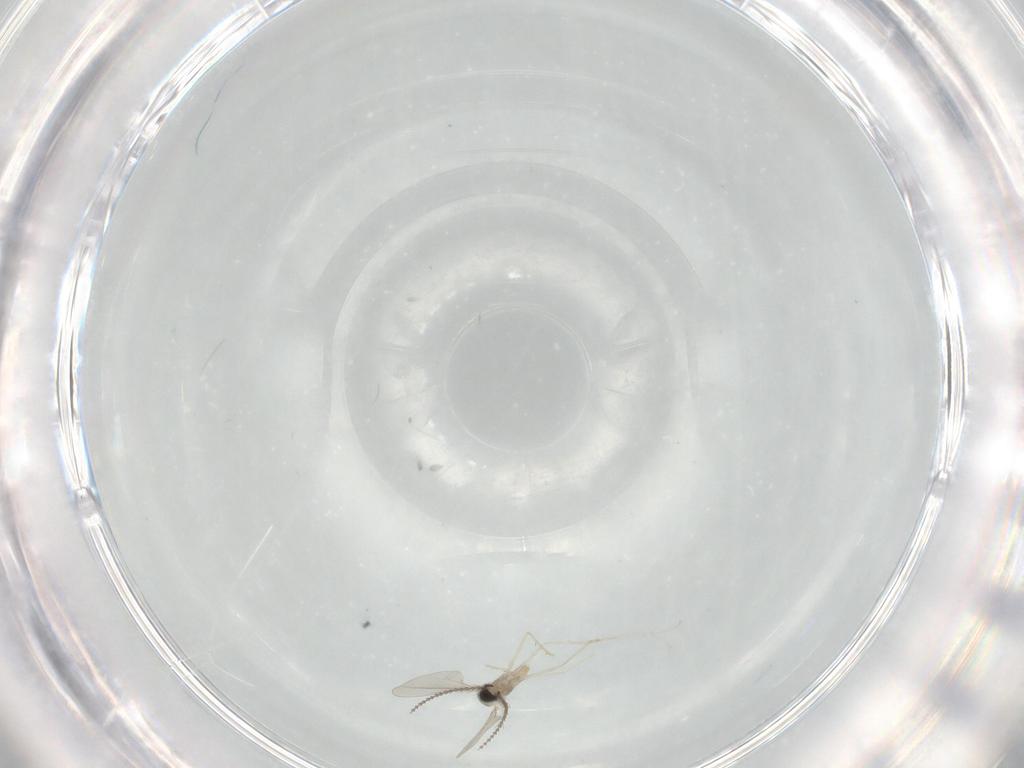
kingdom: Animalia
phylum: Arthropoda
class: Insecta
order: Diptera
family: Cecidomyiidae
